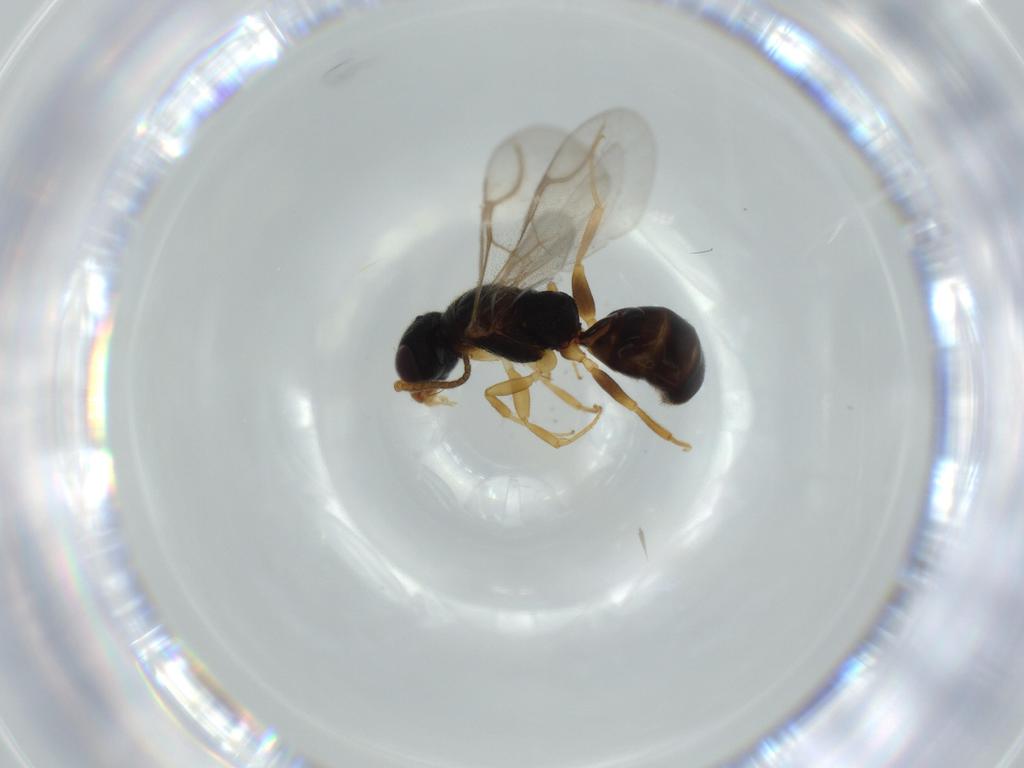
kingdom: Animalia
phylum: Arthropoda
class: Insecta
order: Hymenoptera
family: Bethylidae
